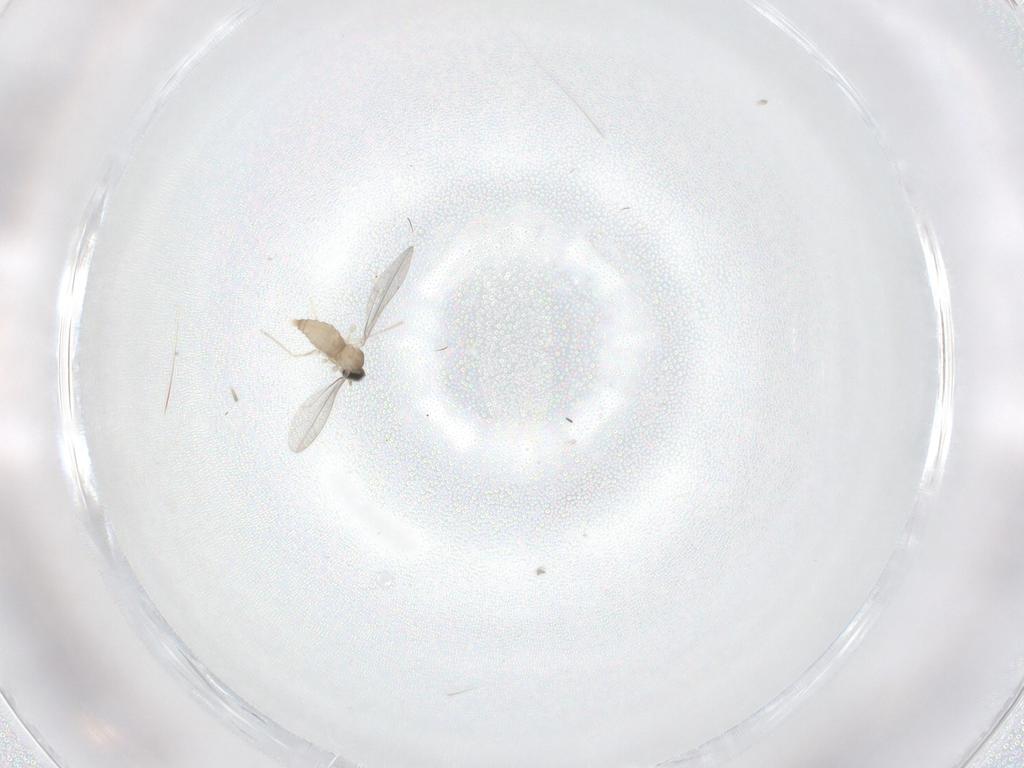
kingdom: Animalia
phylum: Arthropoda
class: Insecta
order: Diptera
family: Cecidomyiidae
